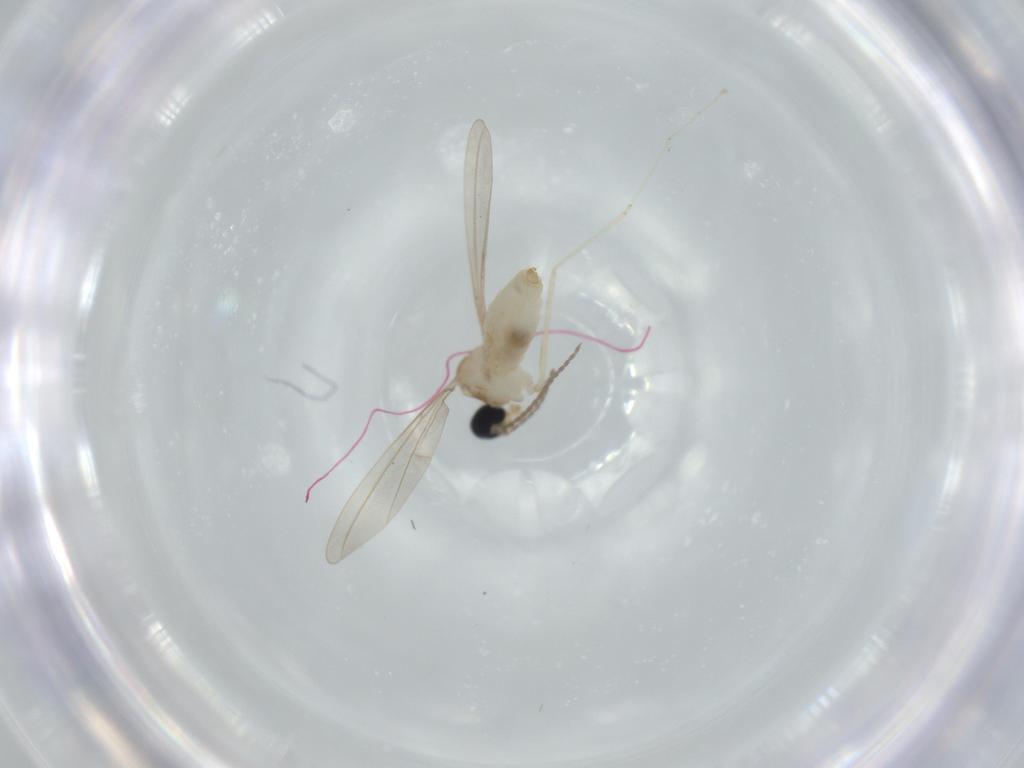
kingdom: Animalia
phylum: Arthropoda
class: Insecta
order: Diptera
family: Cecidomyiidae
